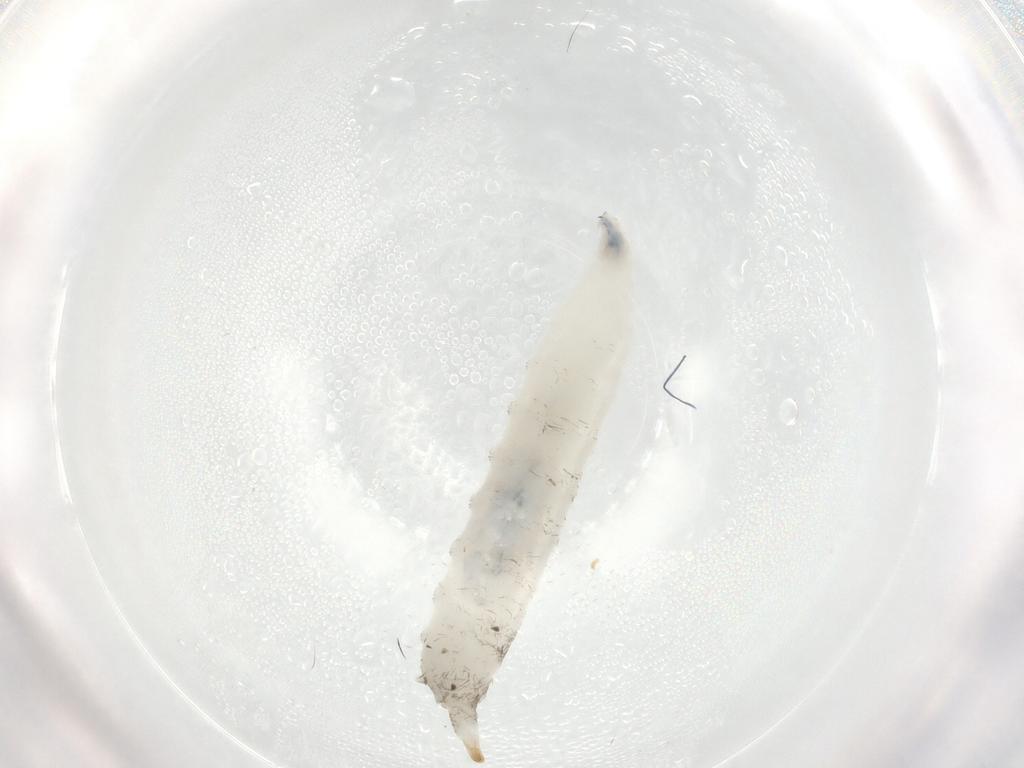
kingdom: Animalia
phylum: Arthropoda
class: Insecta
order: Diptera
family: Drosophilidae
